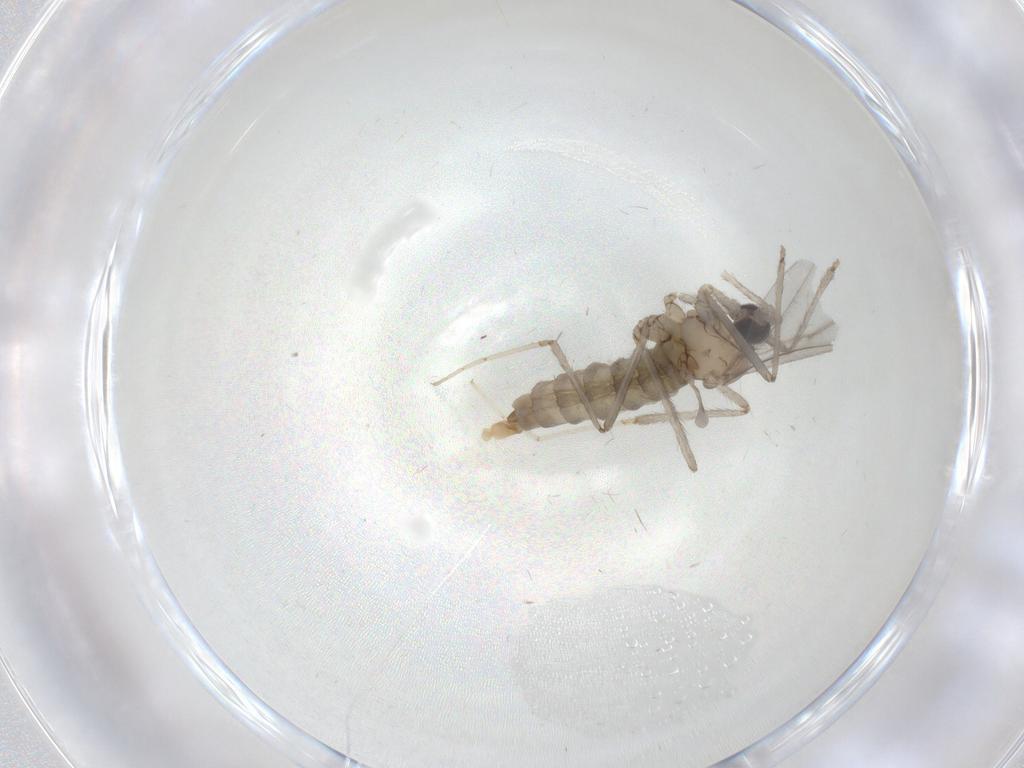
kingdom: Animalia
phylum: Arthropoda
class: Insecta
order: Diptera
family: Cecidomyiidae
